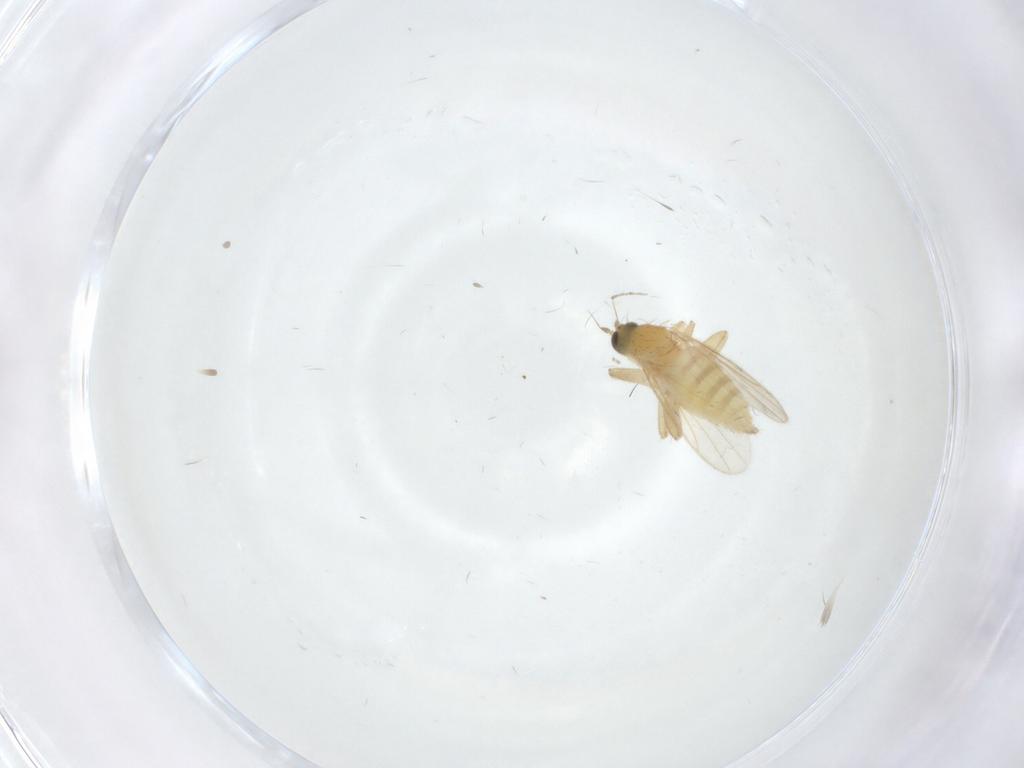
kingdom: Animalia
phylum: Arthropoda
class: Insecta
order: Diptera
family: Hybotidae
